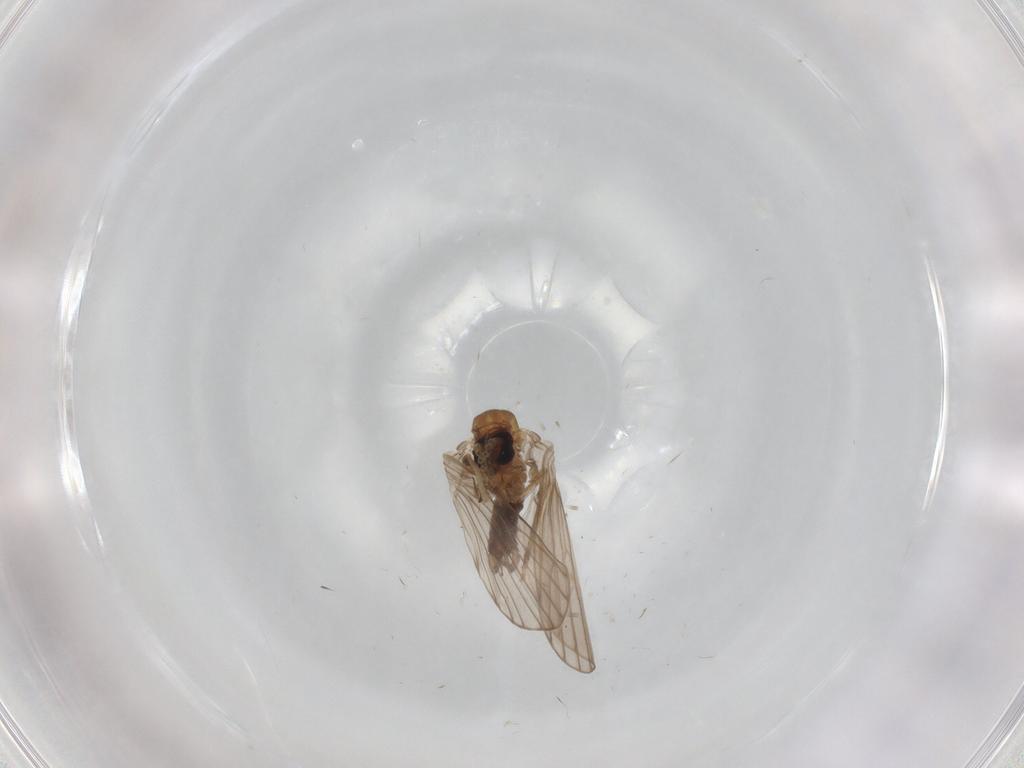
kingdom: Animalia
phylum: Arthropoda
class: Insecta
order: Diptera
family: Psychodidae
